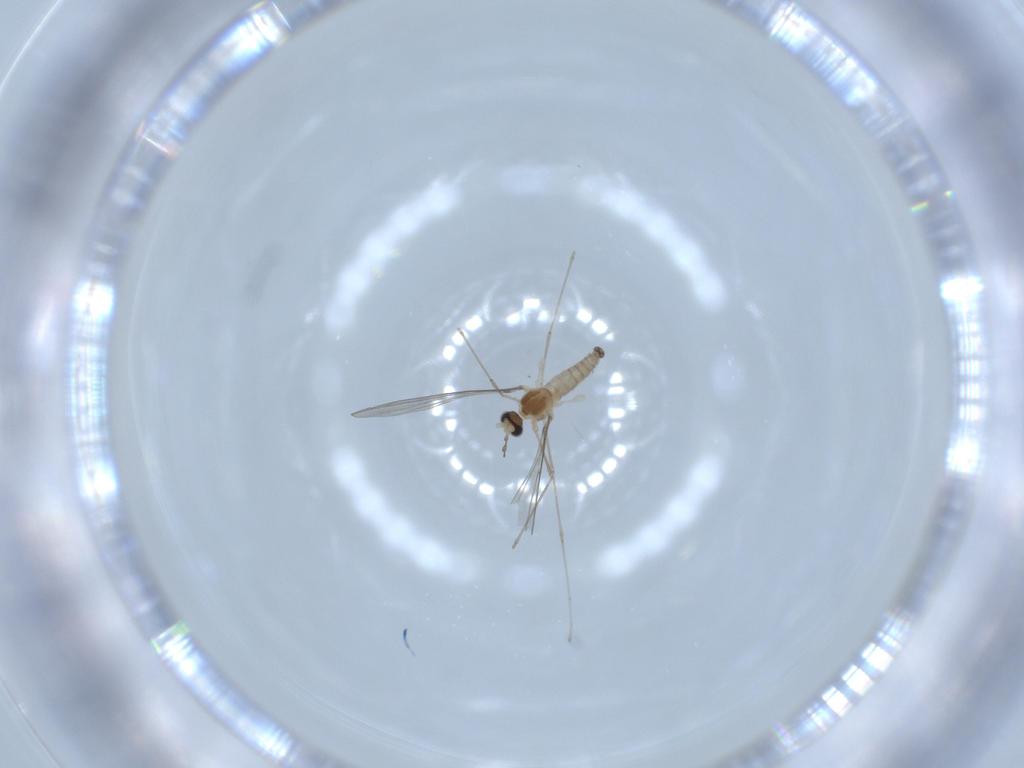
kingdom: Animalia
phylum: Arthropoda
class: Insecta
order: Diptera
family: Cecidomyiidae
